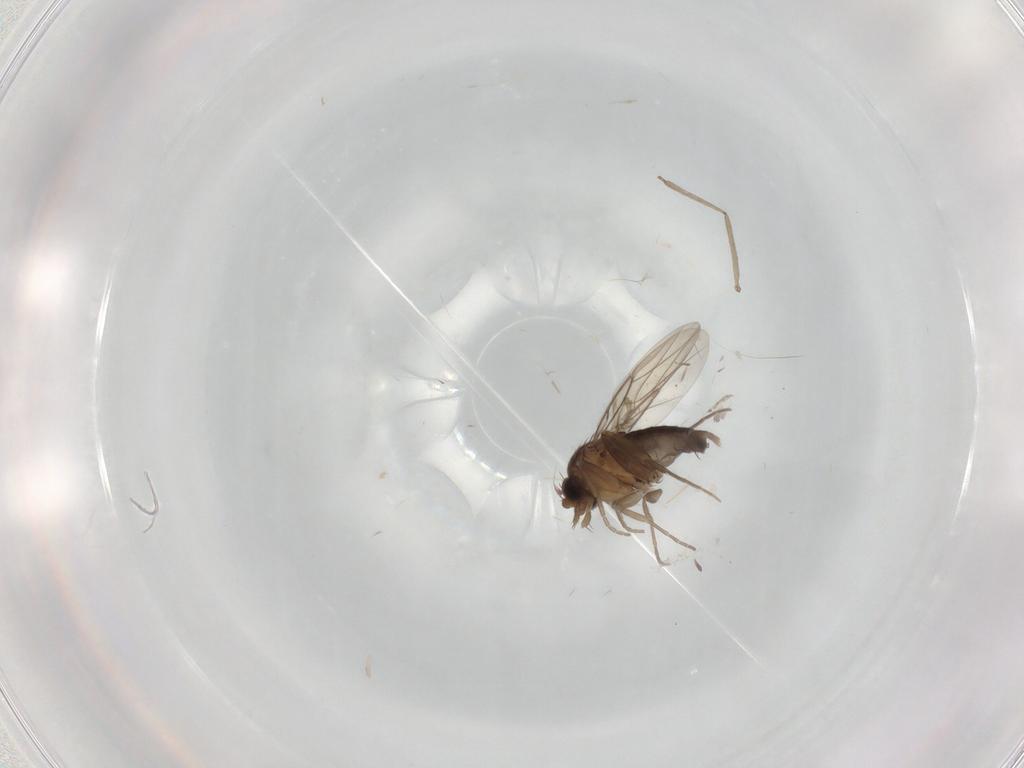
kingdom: Animalia
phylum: Arthropoda
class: Insecta
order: Diptera
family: Phoridae
